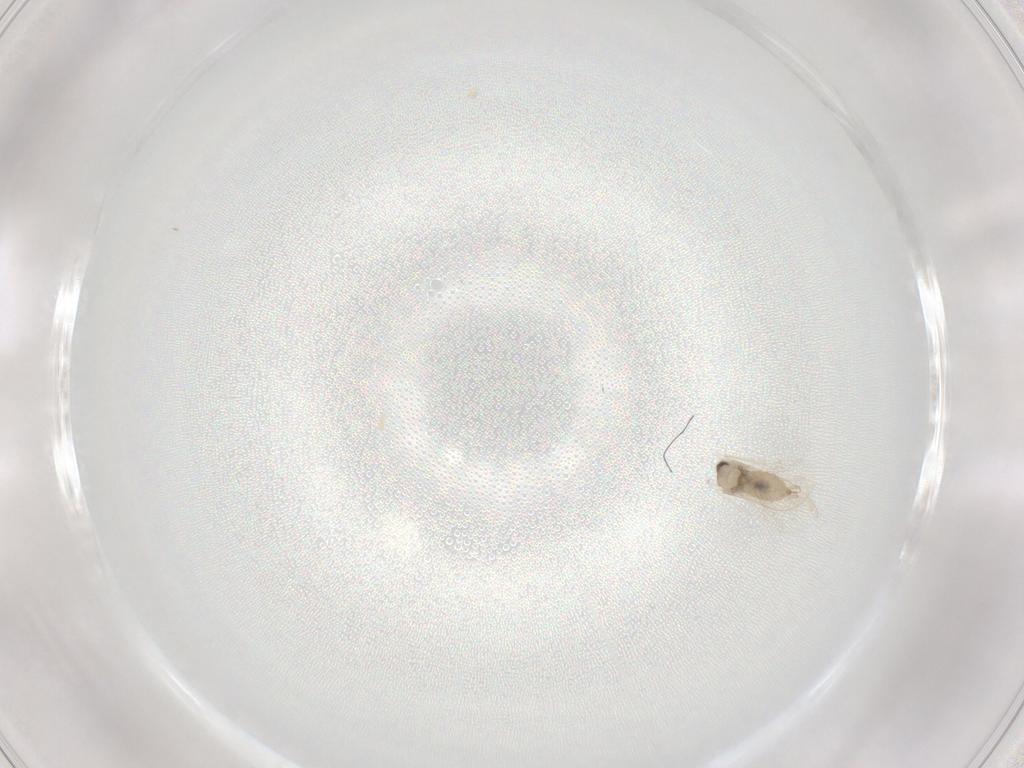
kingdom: Animalia
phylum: Arthropoda
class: Insecta
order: Diptera
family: Cecidomyiidae
